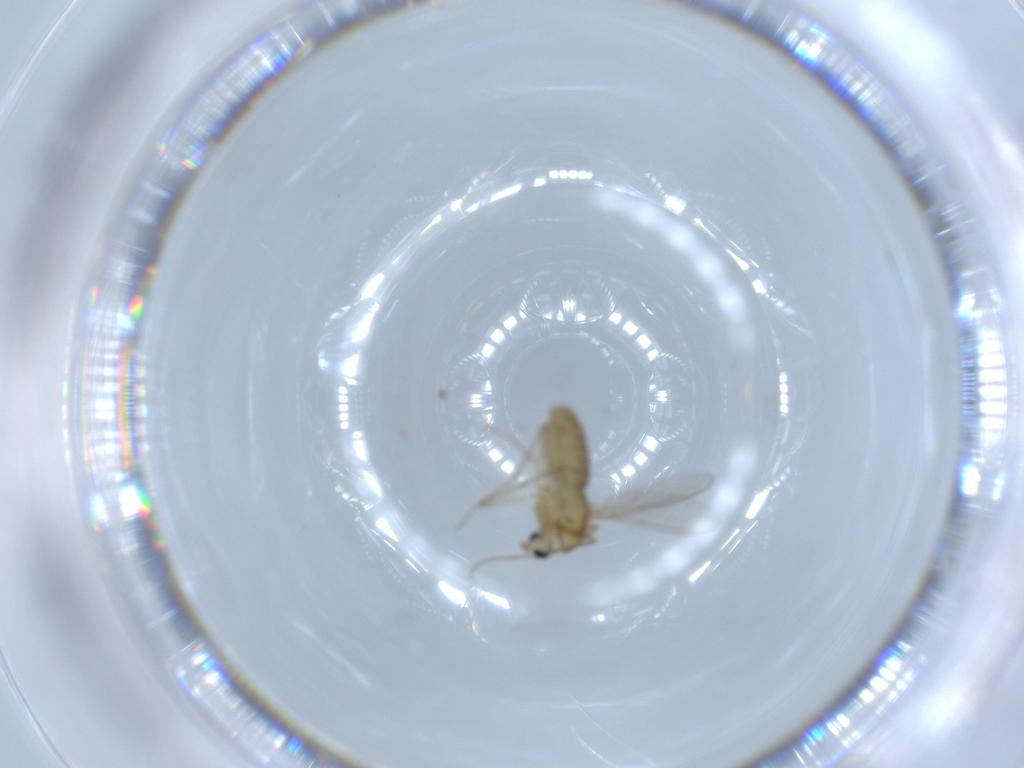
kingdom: Animalia
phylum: Arthropoda
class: Insecta
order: Diptera
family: Chironomidae
